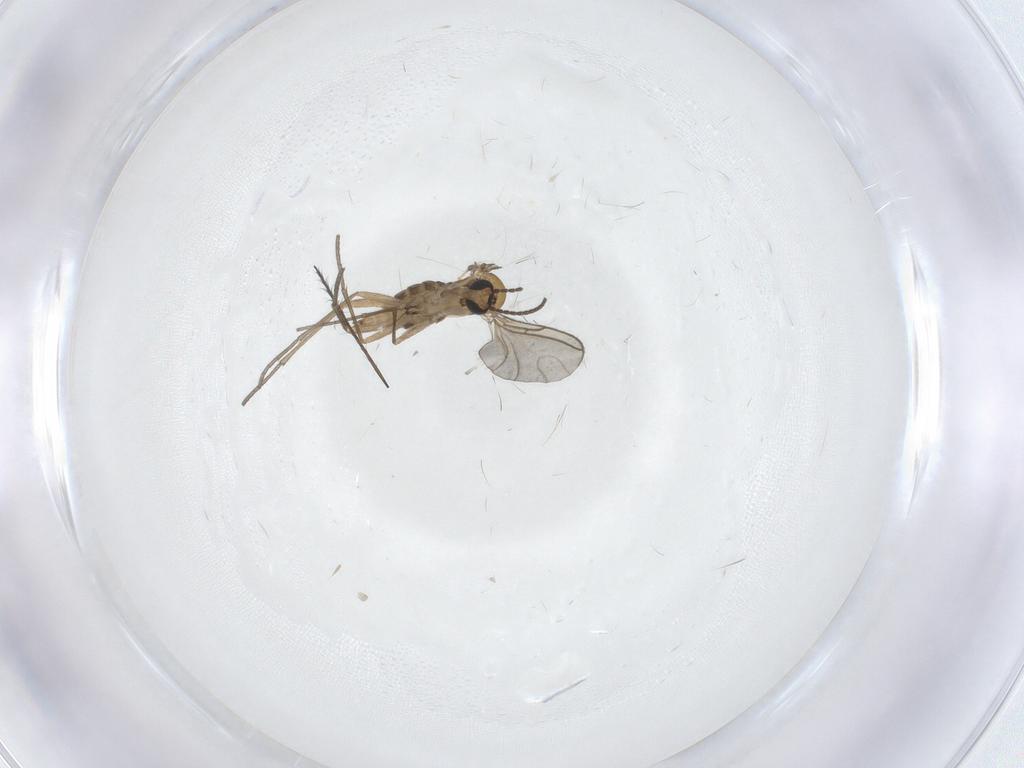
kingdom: Animalia
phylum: Arthropoda
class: Insecta
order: Diptera
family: Sciaridae
